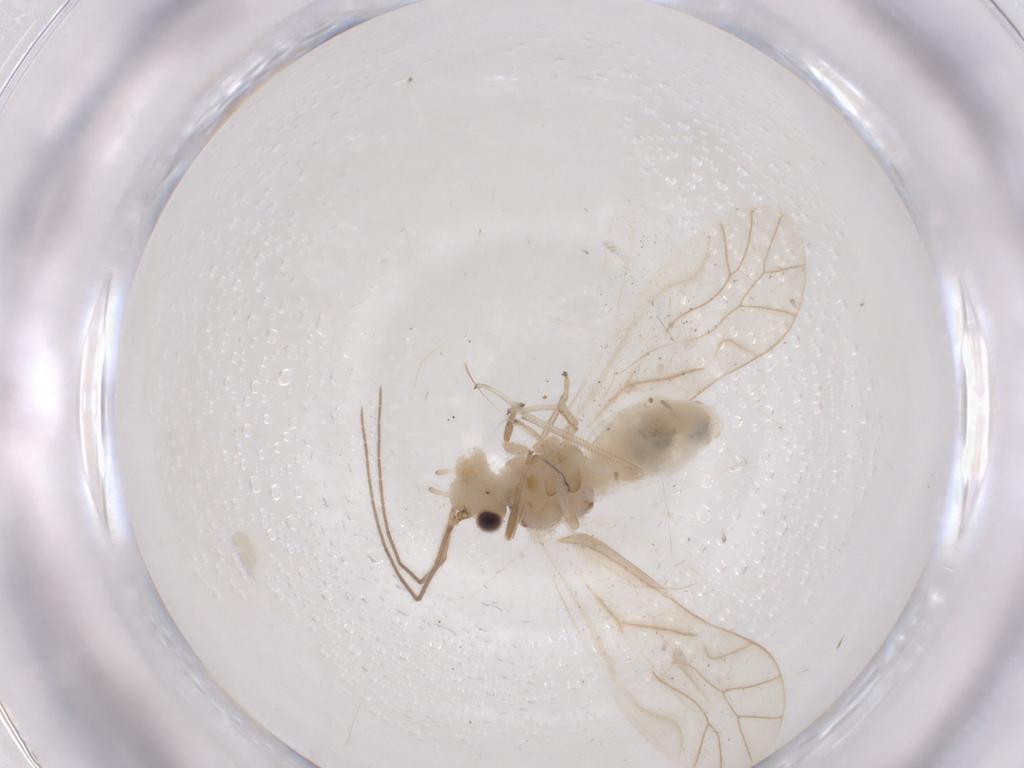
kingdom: Animalia
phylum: Arthropoda
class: Insecta
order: Psocodea
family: Caeciliusidae
